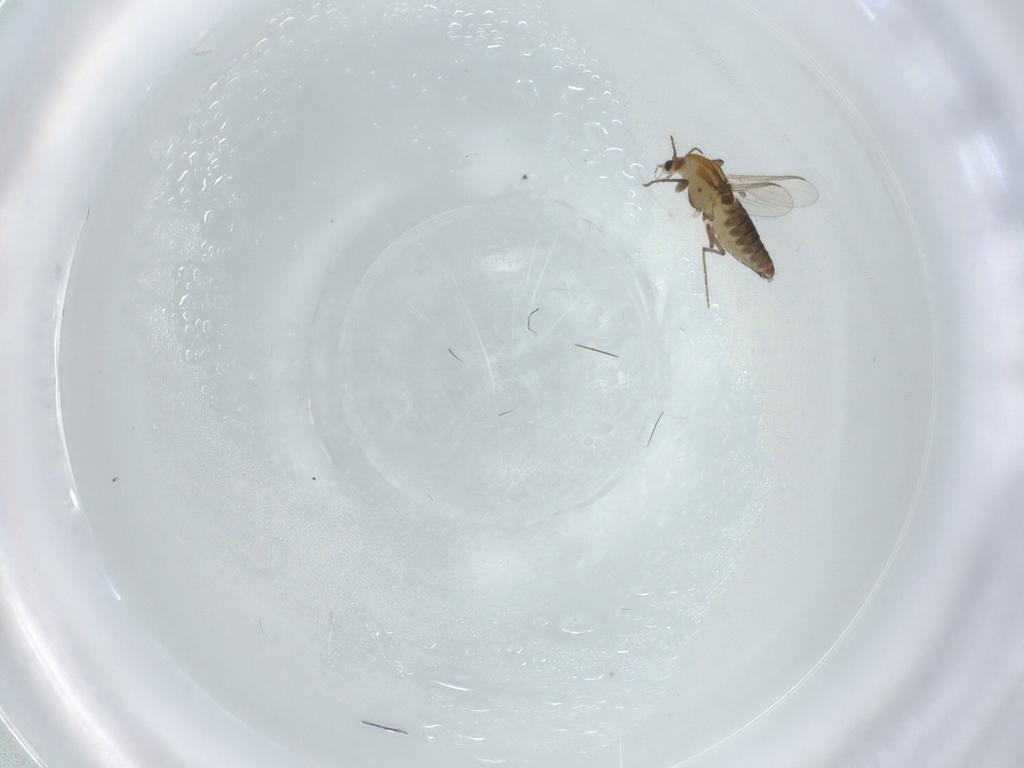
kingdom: Animalia
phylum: Arthropoda
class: Insecta
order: Diptera
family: Chironomidae
